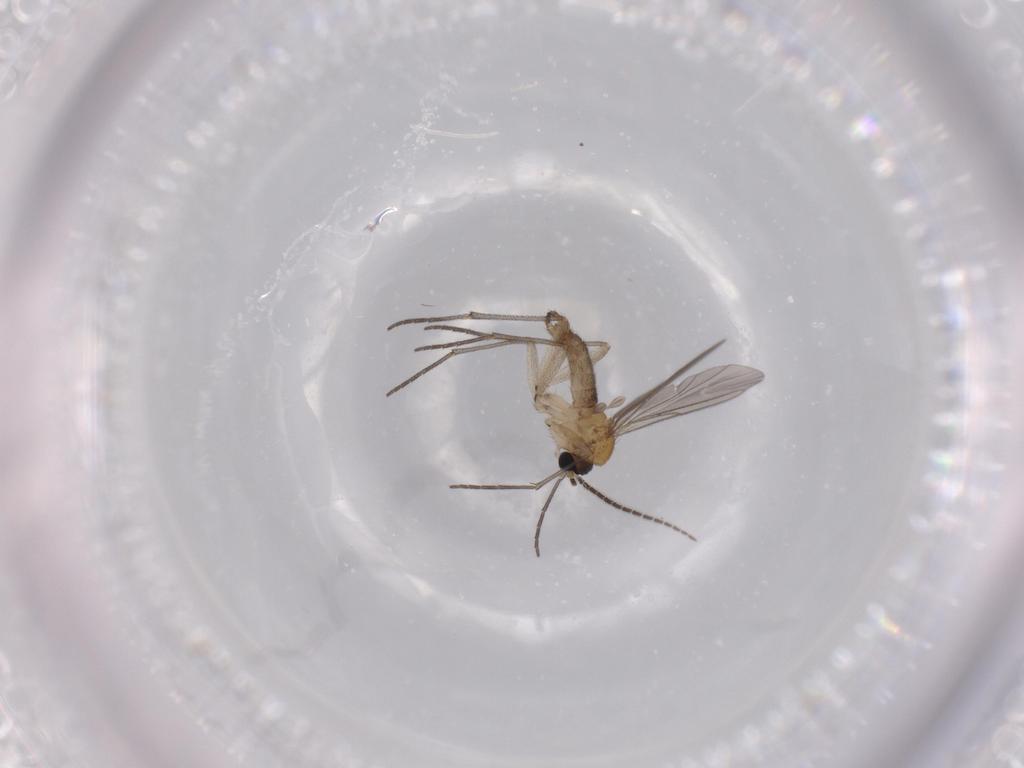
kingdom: Animalia
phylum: Arthropoda
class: Insecta
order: Diptera
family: Sciaridae
